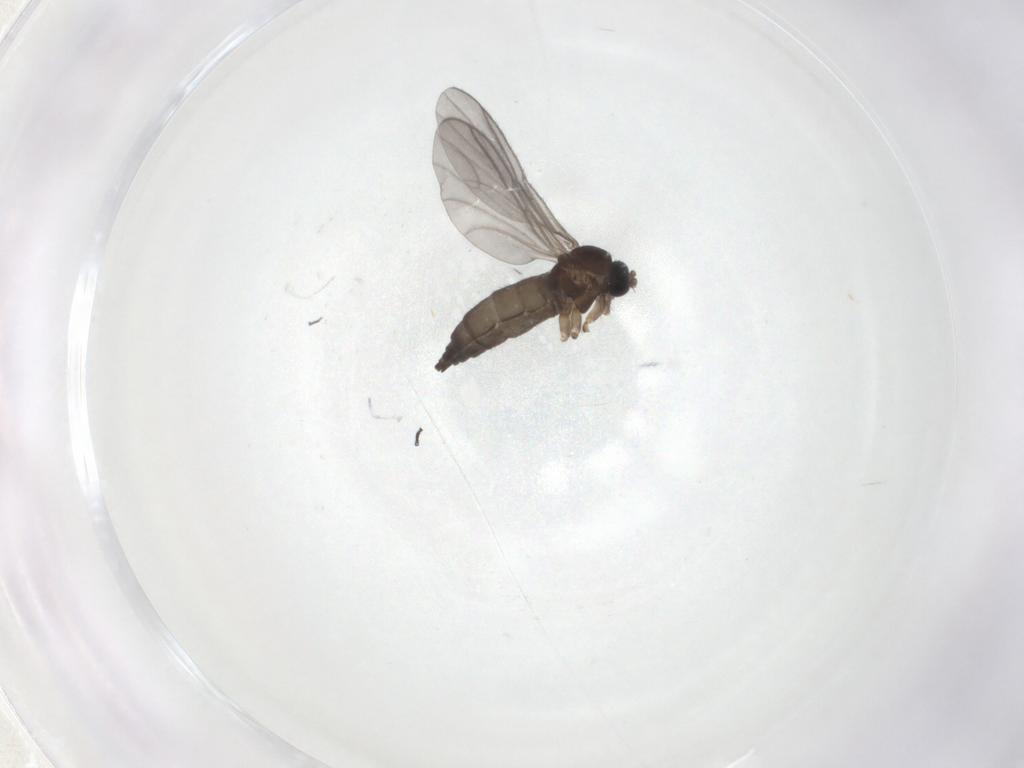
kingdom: Animalia
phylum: Arthropoda
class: Insecta
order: Diptera
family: Sciaridae
